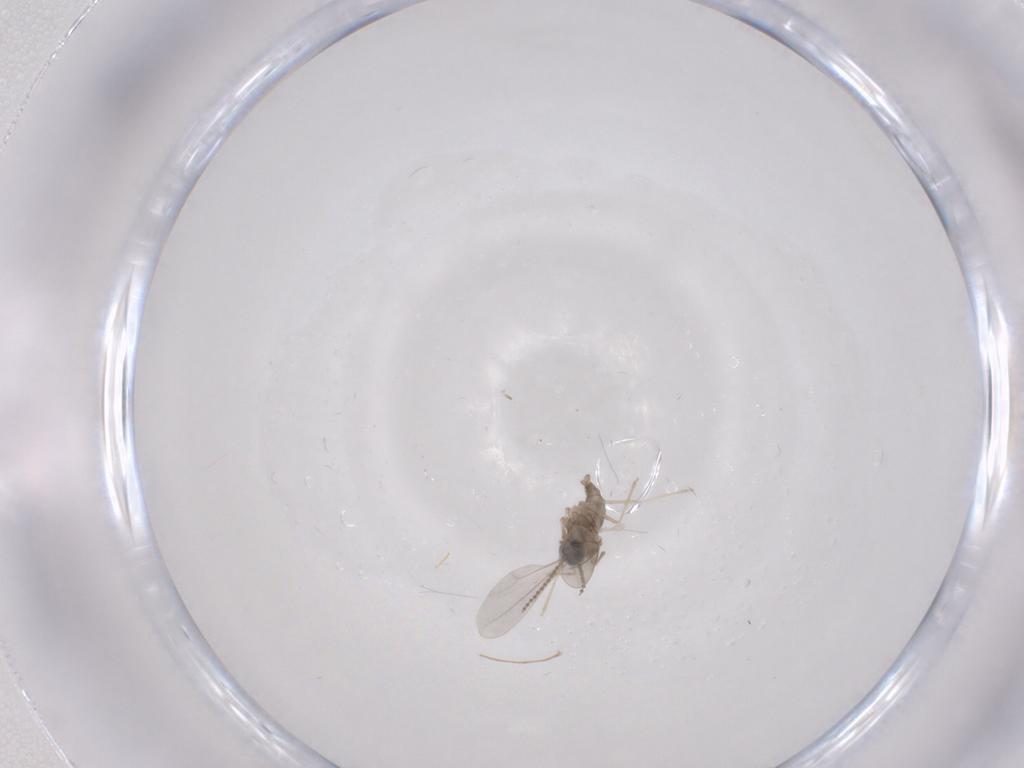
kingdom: Animalia
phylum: Arthropoda
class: Insecta
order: Diptera
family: Cecidomyiidae
